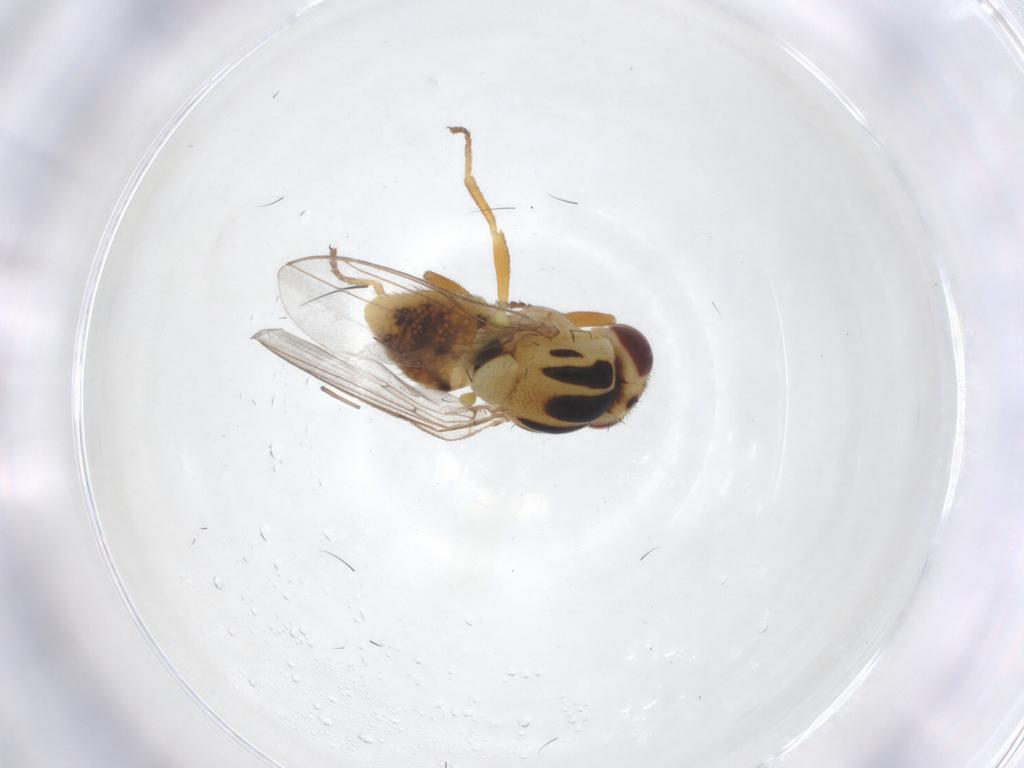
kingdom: Animalia
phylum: Arthropoda
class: Insecta
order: Diptera
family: Chloropidae
